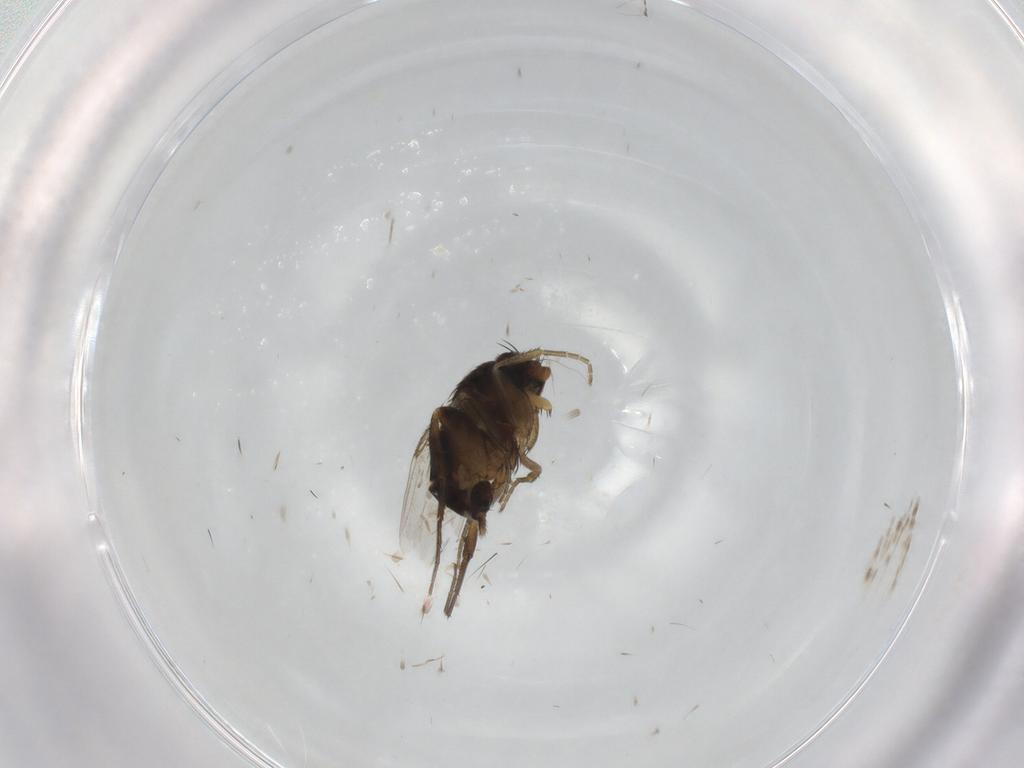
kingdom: Animalia
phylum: Arthropoda
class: Insecta
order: Diptera
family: Phoridae
